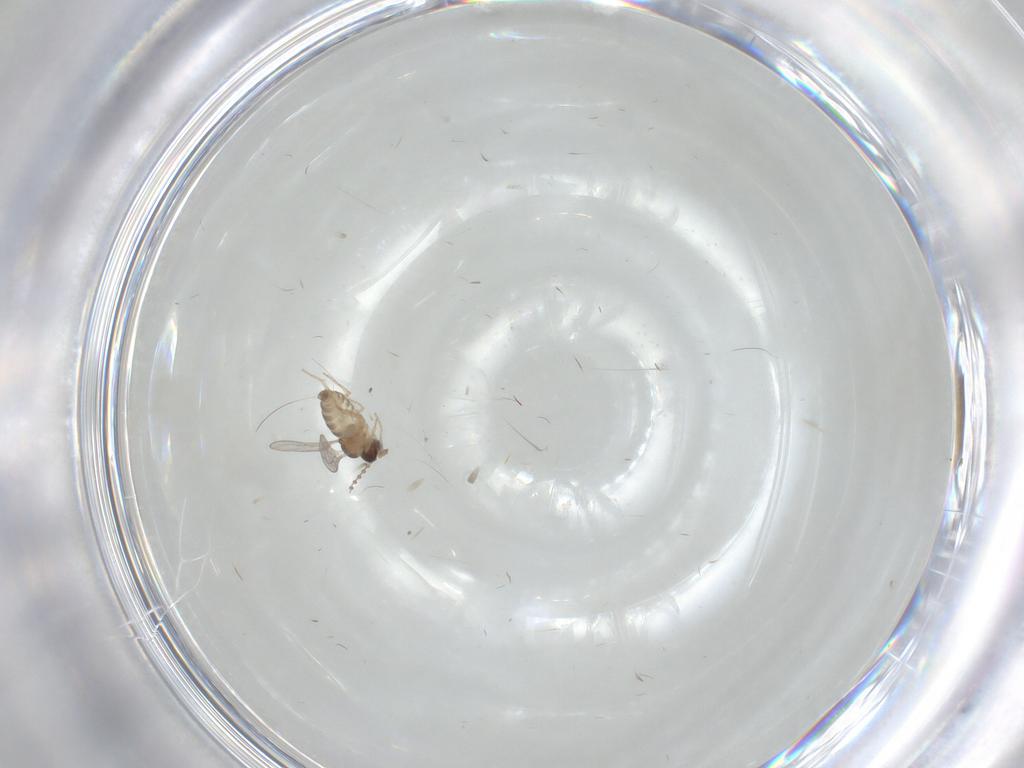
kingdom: Animalia
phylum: Arthropoda
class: Insecta
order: Diptera
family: Cecidomyiidae
